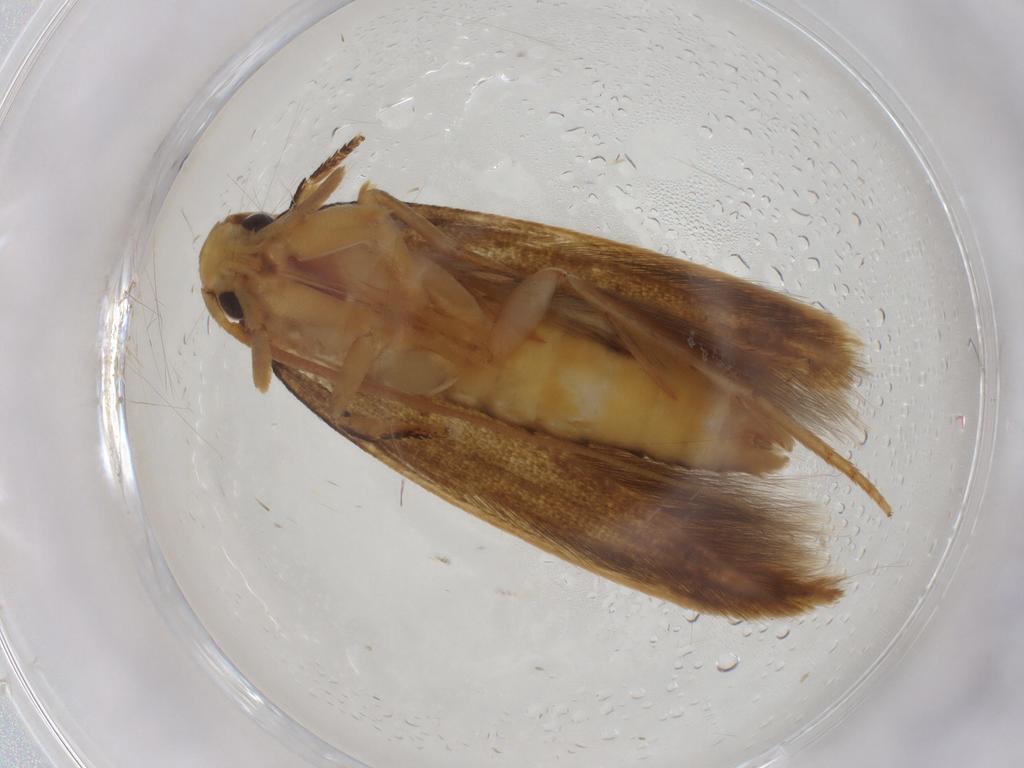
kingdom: Animalia
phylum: Arthropoda
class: Insecta
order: Lepidoptera
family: Tineidae
